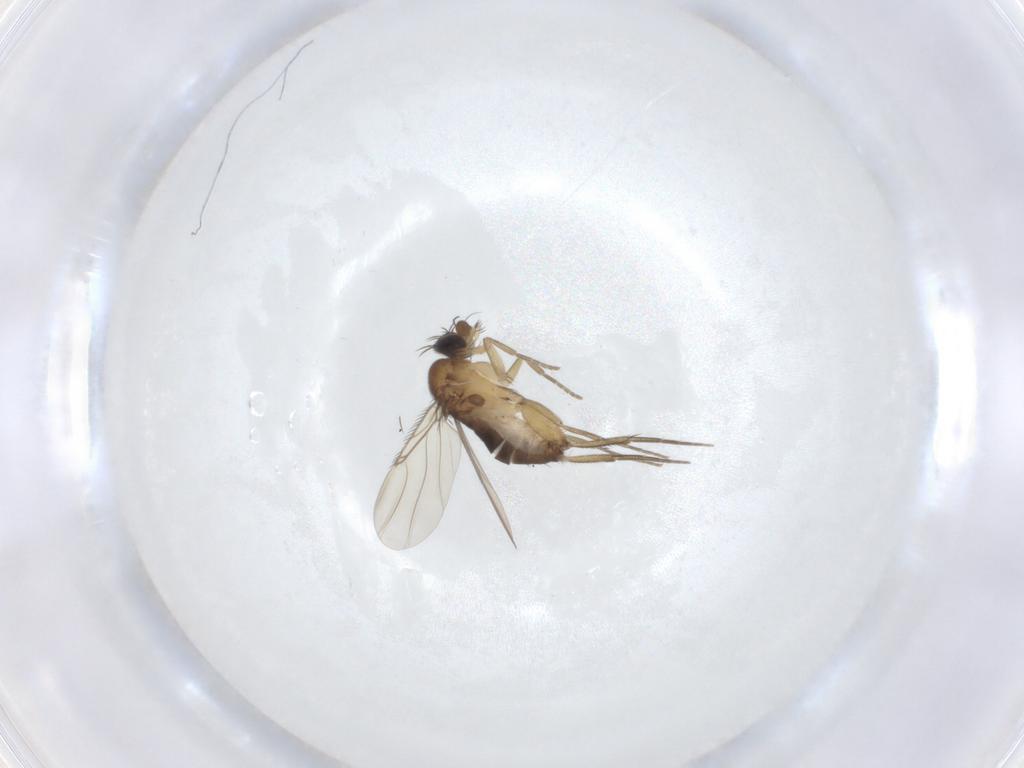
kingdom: Animalia
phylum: Arthropoda
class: Insecta
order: Diptera
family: Phoridae
